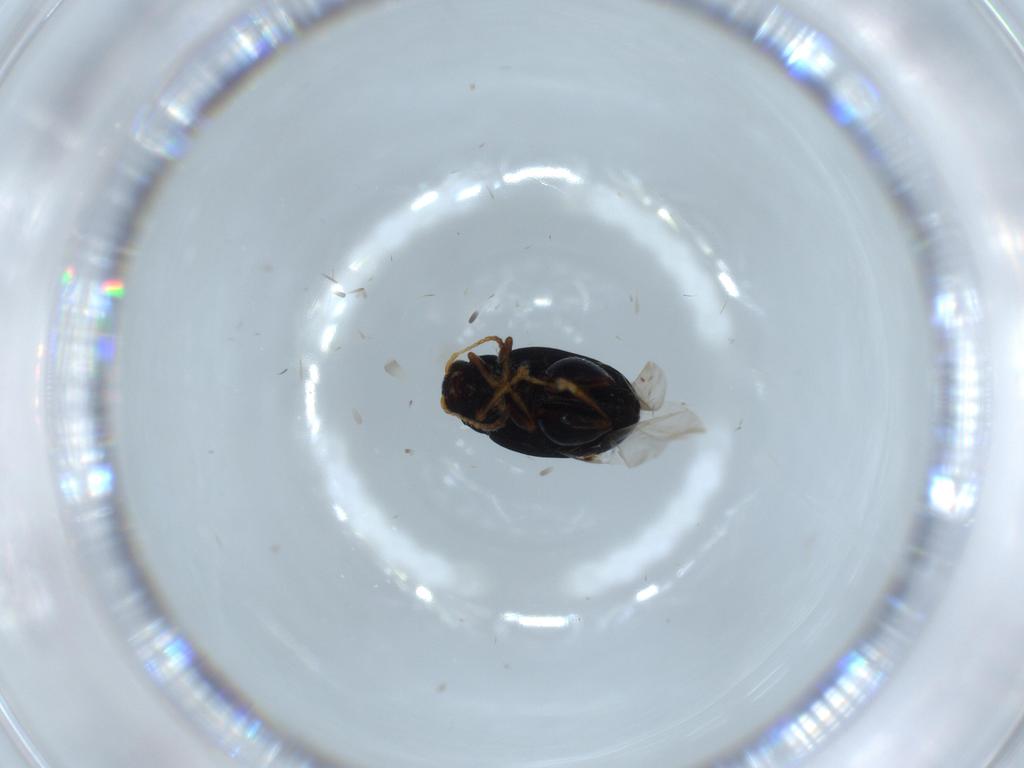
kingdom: Animalia
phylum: Arthropoda
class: Insecta
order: Coleoptera
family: Chrysomelidae
